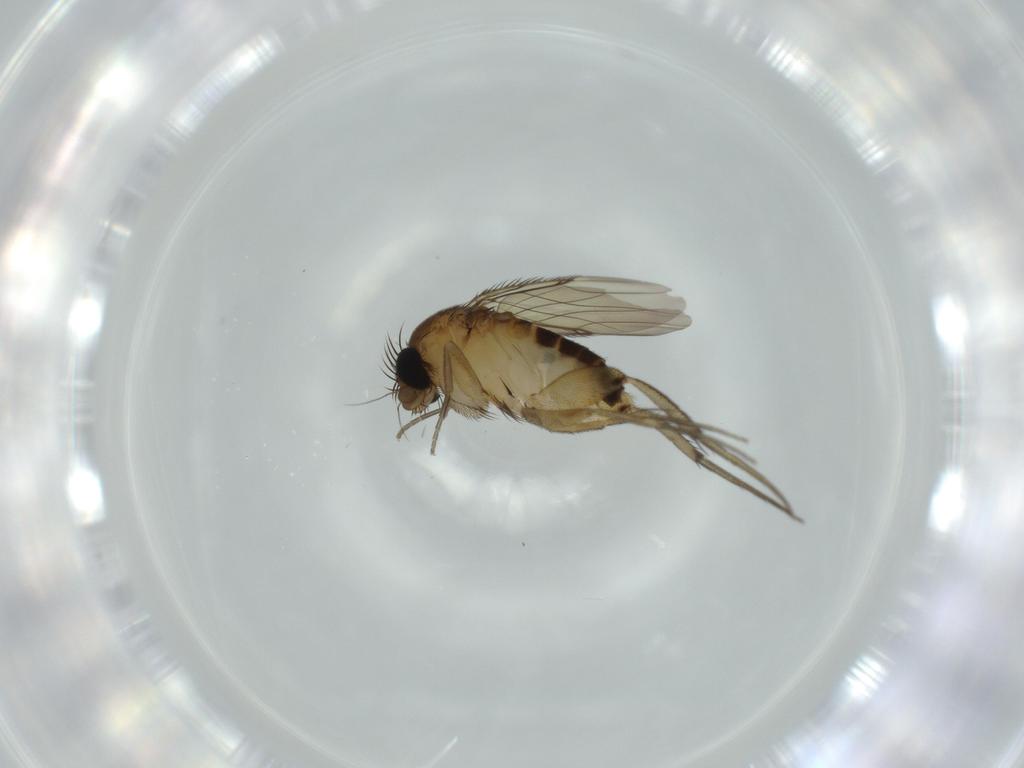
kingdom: Animalia
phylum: Arthropoda
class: Insecta
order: Diptera
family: Phoridae
